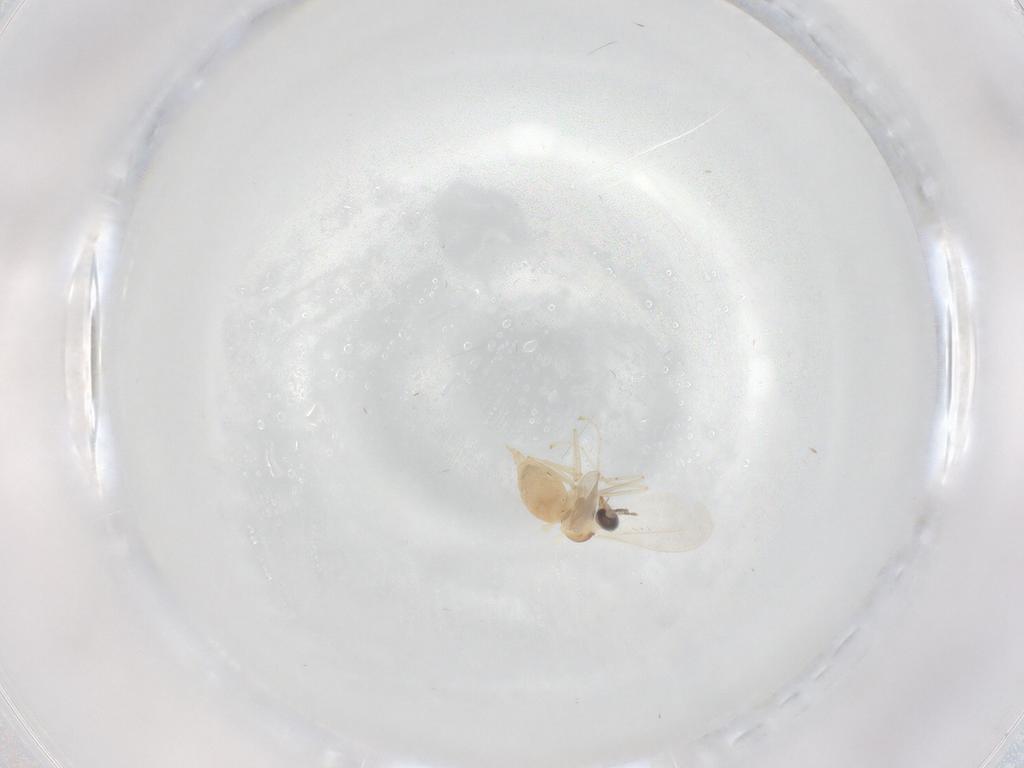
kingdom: Animalia
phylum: Arthropoda
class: Insecta
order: Diptera
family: Cecidomyiidae
